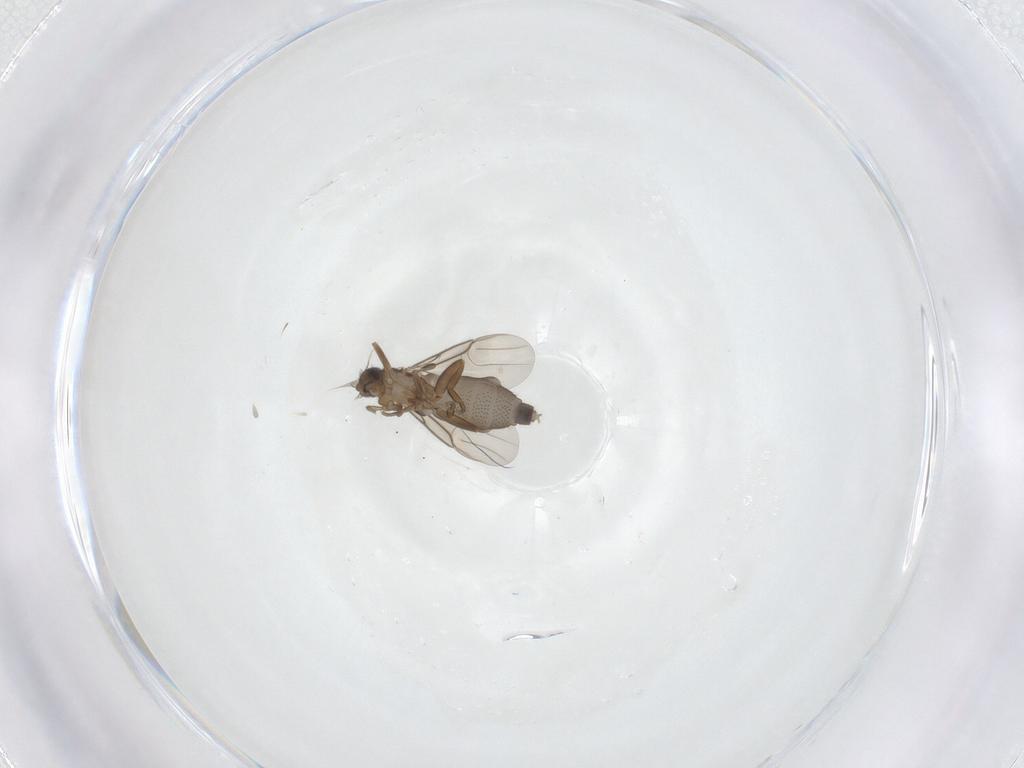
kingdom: Animalia
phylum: Arthropoda
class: Insecta
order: Diptera
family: Phoridae
